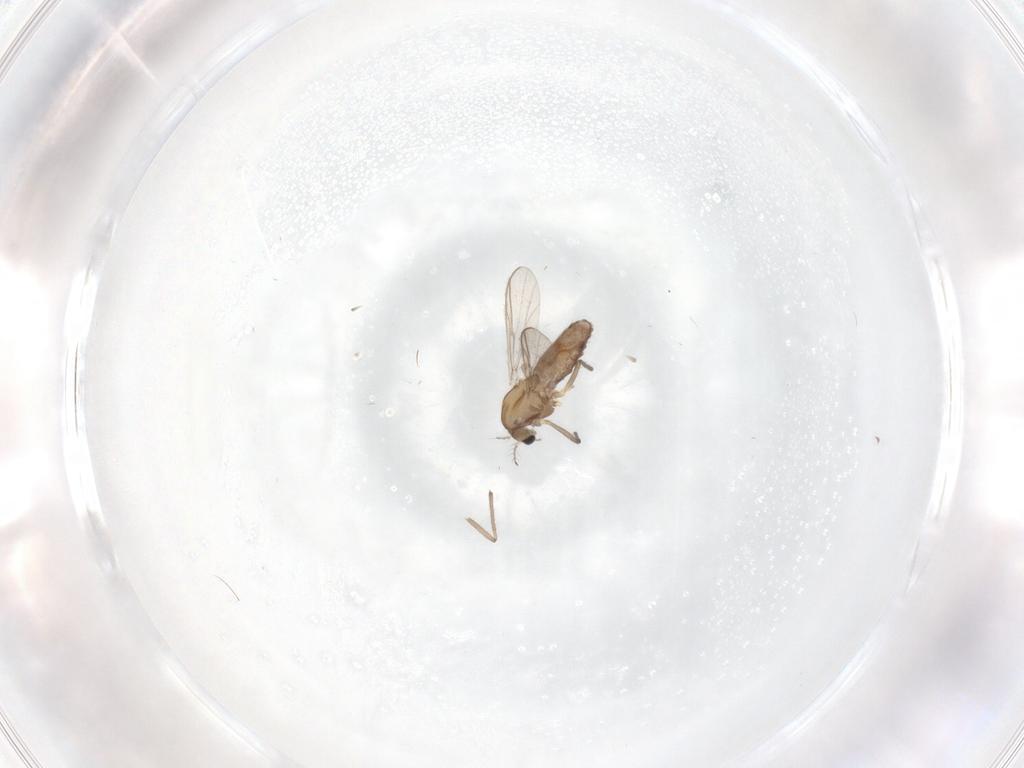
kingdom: Animalia
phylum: Arthropoda
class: Insecta
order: Diptera
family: Chironomidae
